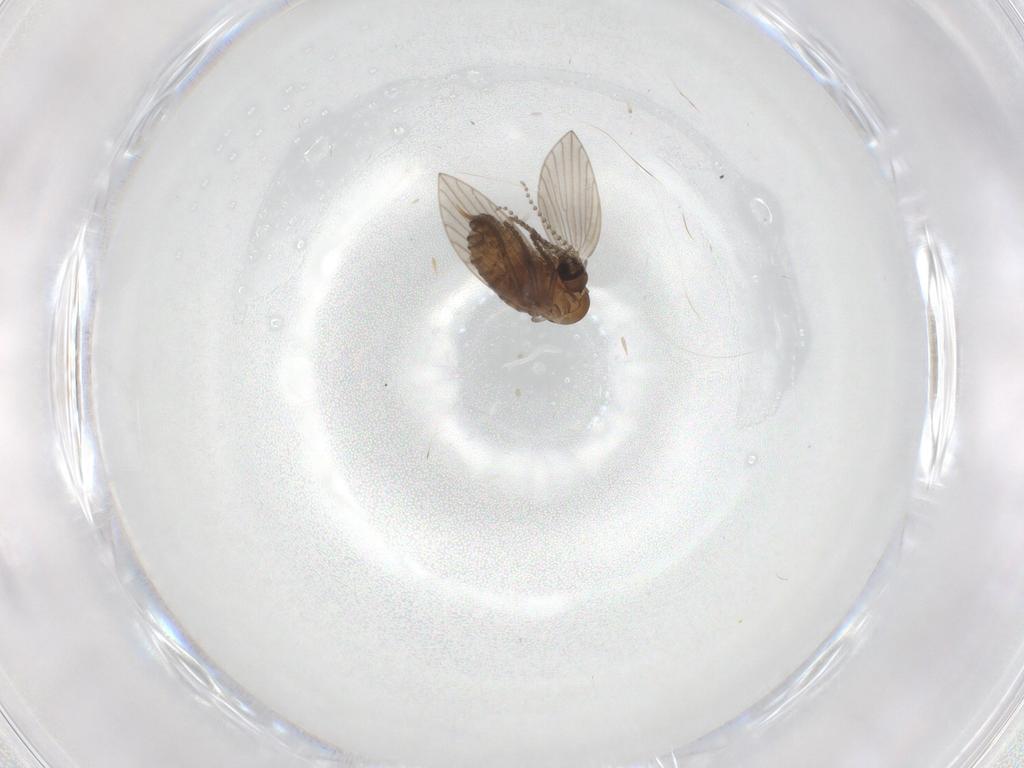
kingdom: Animalia
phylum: Arthropoda
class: Insecta
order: Diptera
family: Psychodidae
